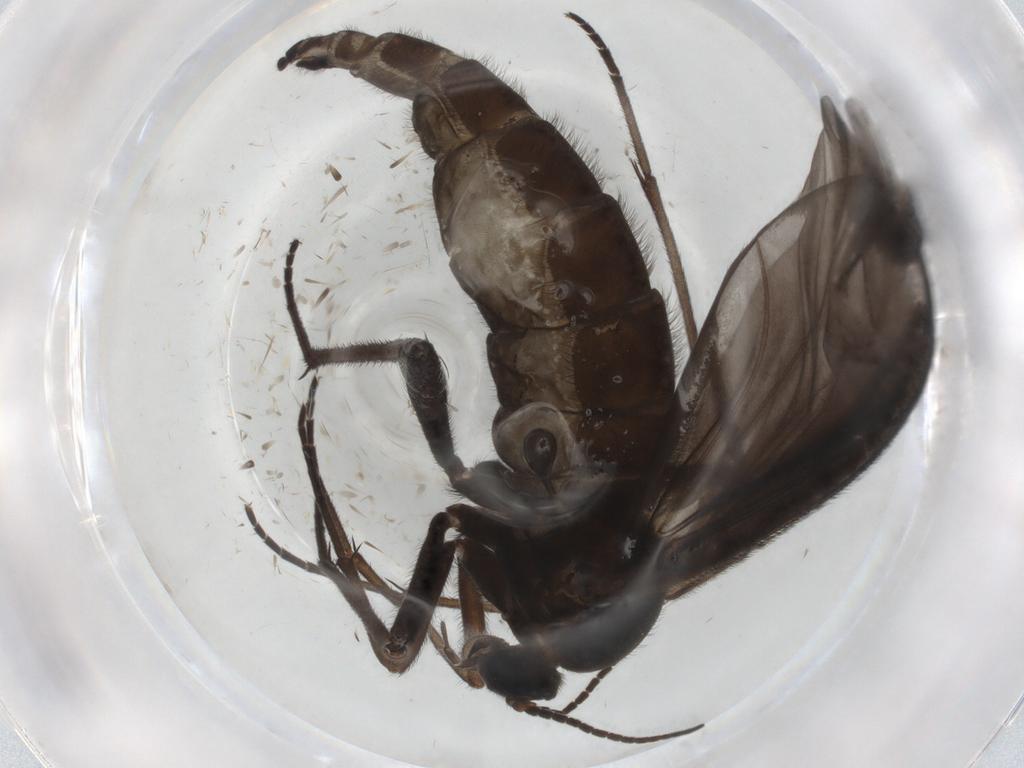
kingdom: Animalia
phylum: Arthropoda
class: Insecta
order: Diptera
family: Sciaridae
